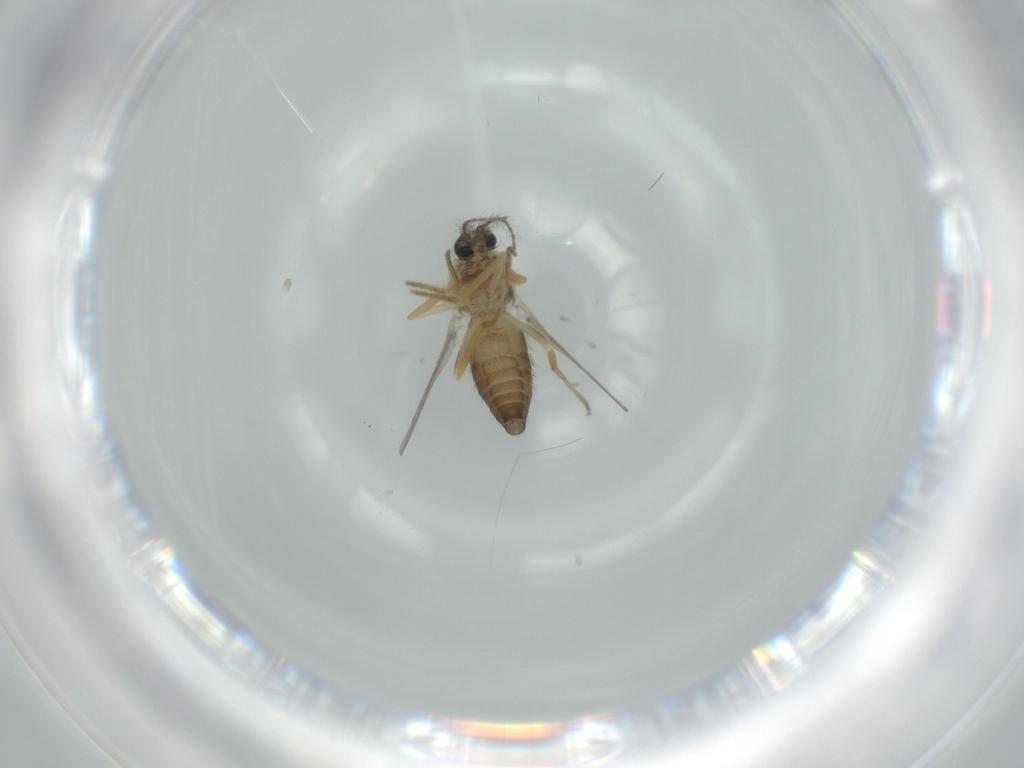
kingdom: Animalia
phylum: Arthropoda
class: Insecta
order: Diptera
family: Ceratopogonidae
